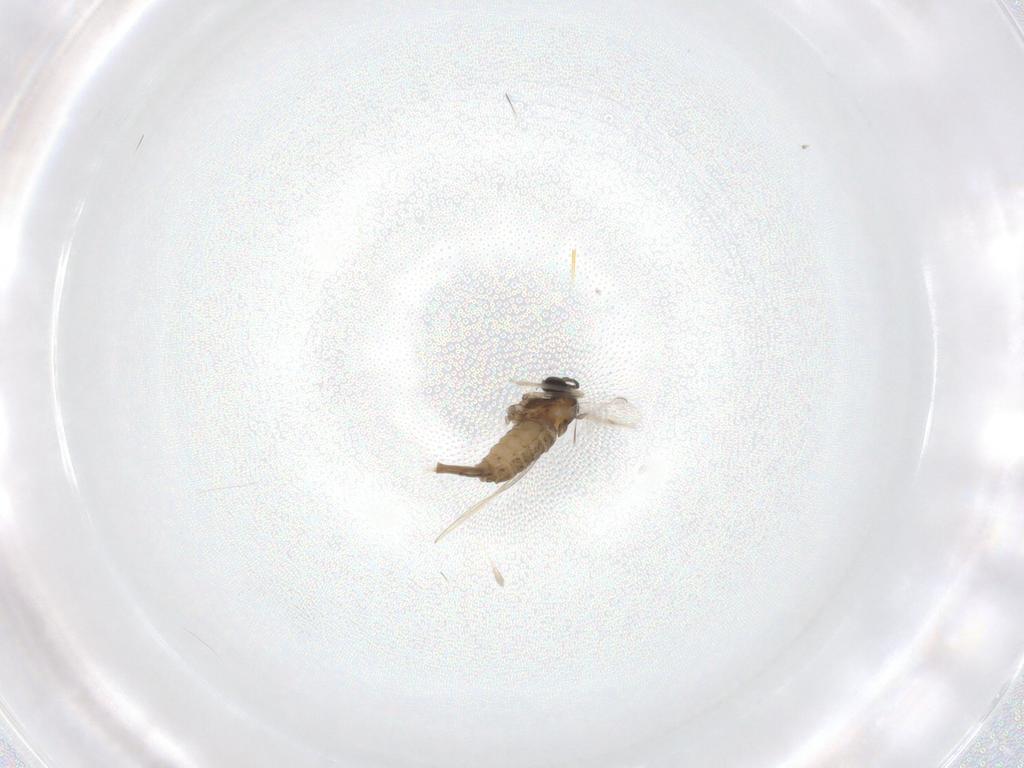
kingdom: Animalia
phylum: Arthropoda
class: Insecta
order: Diptera
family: Cecidomyiidae
